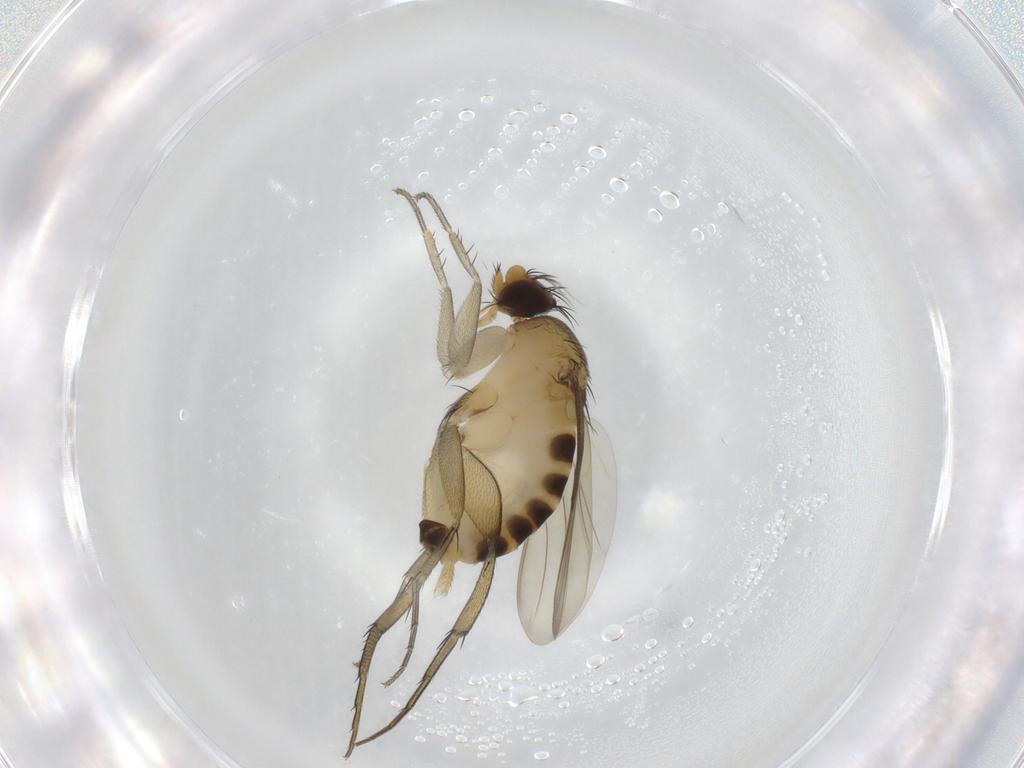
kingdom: Animalia
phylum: Arthropoda
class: Insecta
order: Diptera
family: Phoridae
